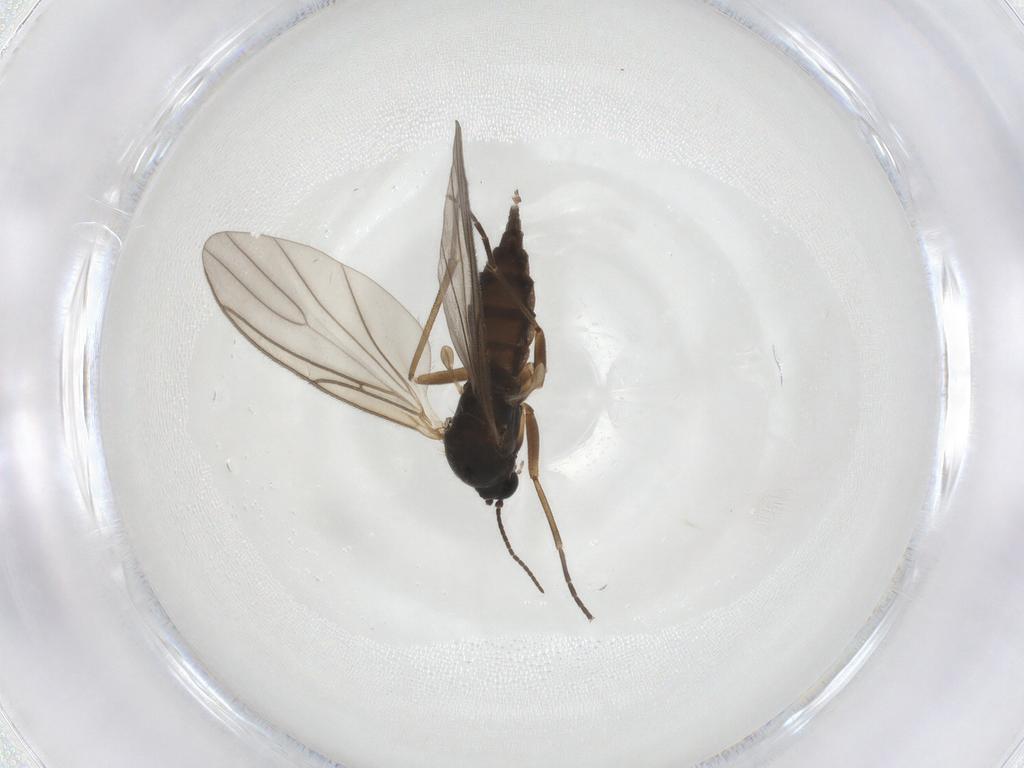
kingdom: Animalia
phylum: Arthropoda
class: Insecta
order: Diptera
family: Ceratopogonidae
